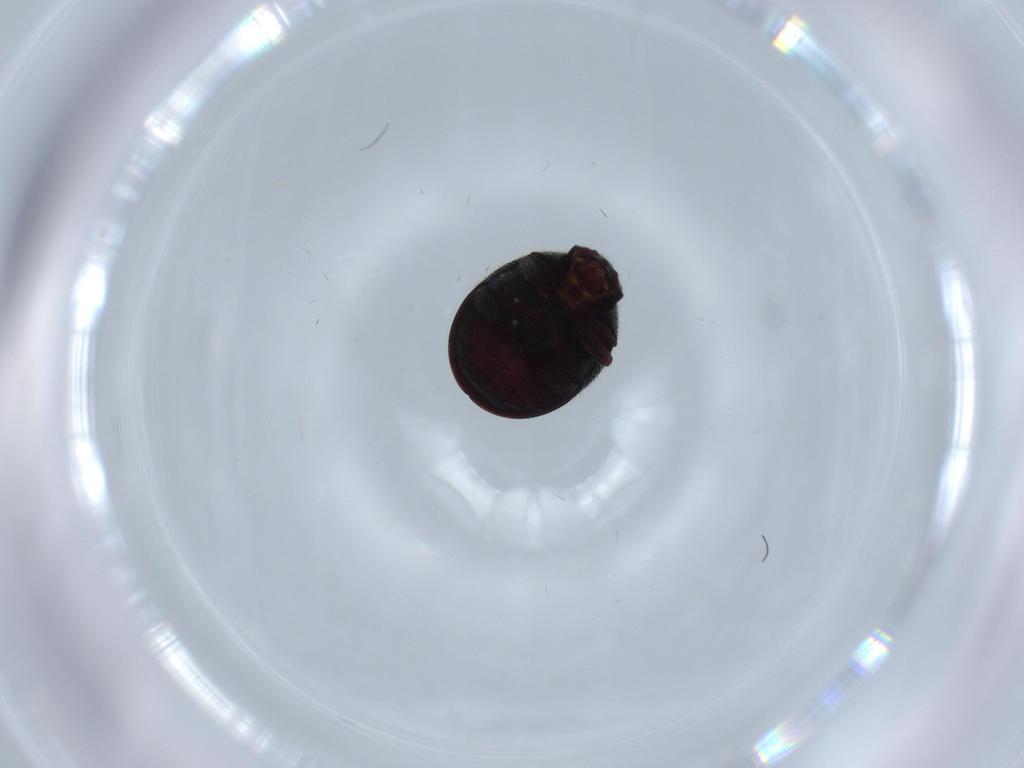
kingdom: Animalia
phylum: Arthropoda
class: Insecta
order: Coleoptera
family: Ptinidae
